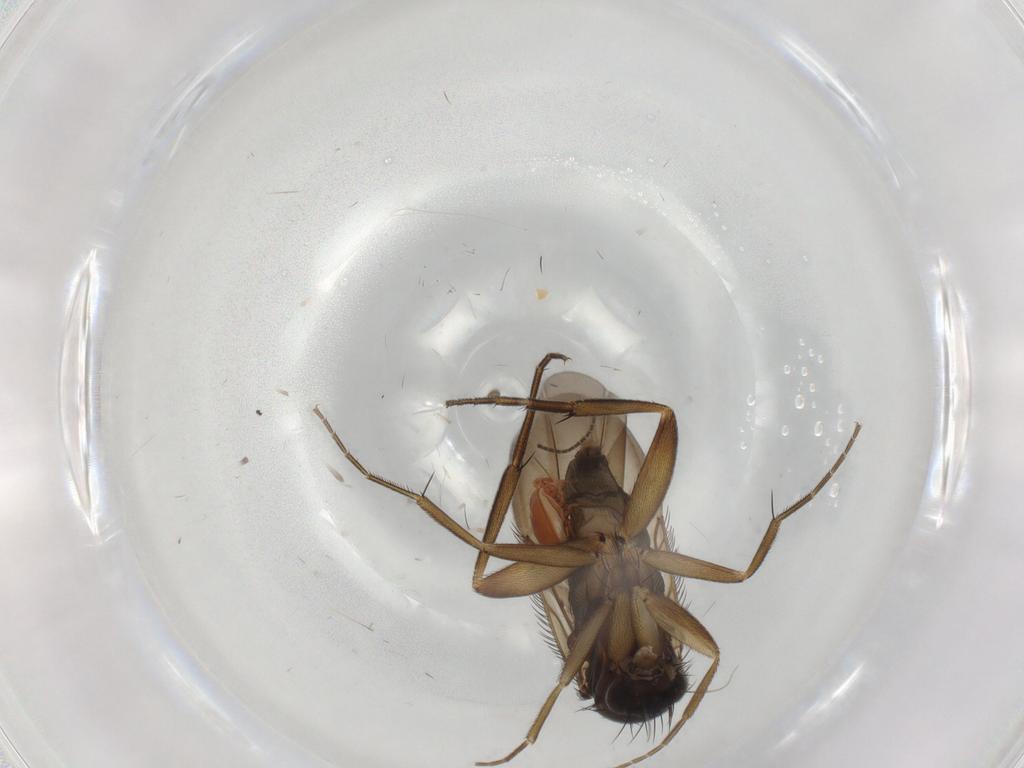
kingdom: Animalia
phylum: Arthropoda
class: Insecta
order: Diptera
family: Phoridae
